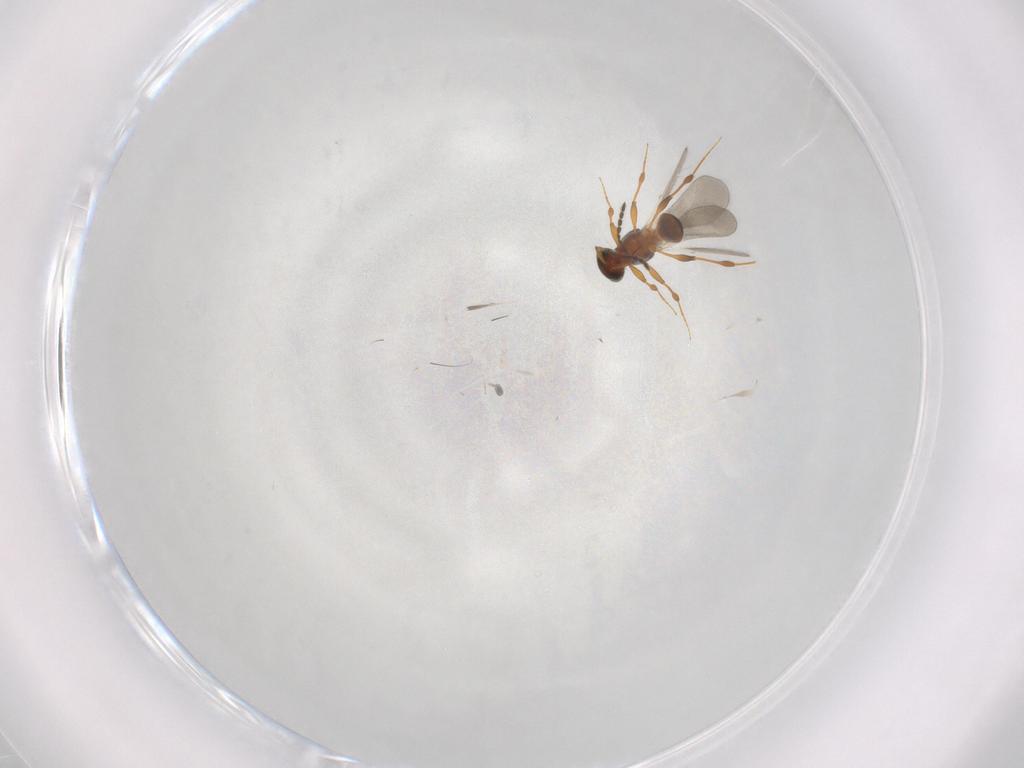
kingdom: Animalia
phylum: Arthropoda
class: Insecta
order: Hymenoptera
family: Platygastridae
